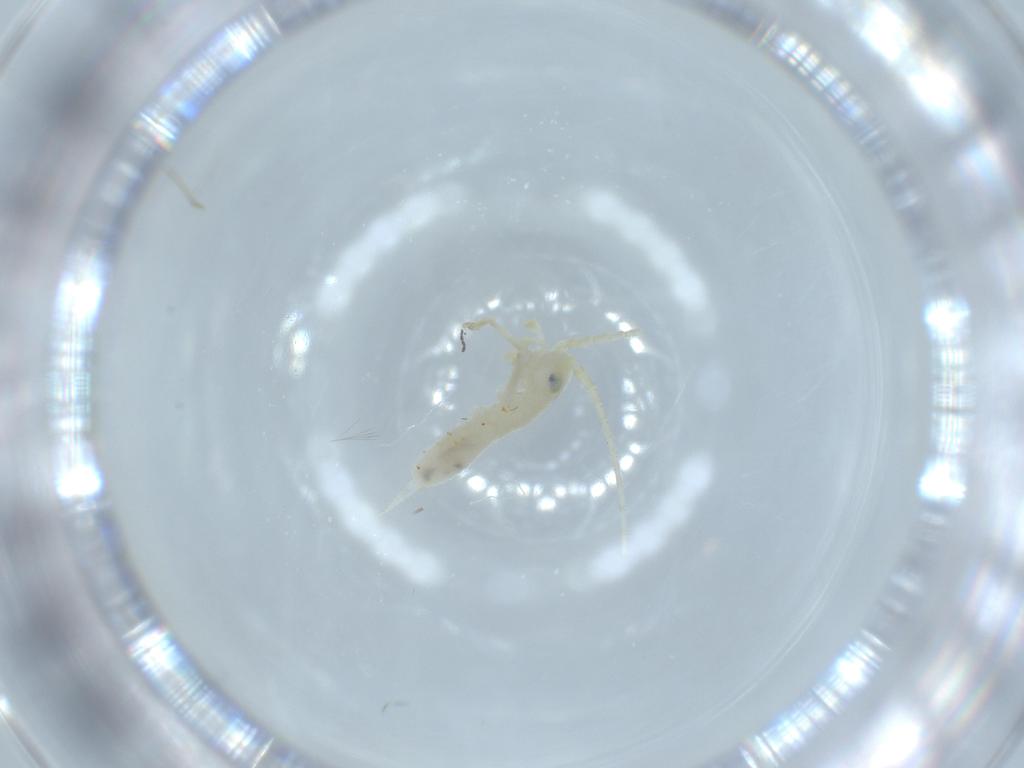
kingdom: Animalia
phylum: Arthropoda
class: Insecta
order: Orthoptera
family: Trigonidiidae
